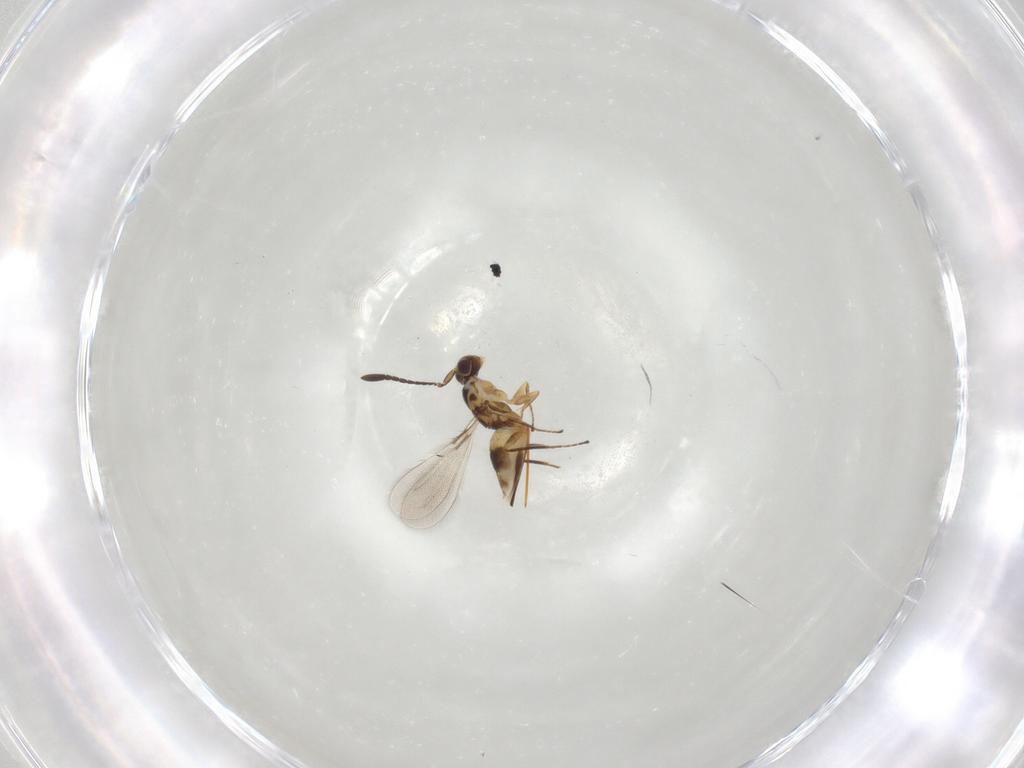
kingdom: Animalia
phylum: Arthropoda
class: Insecta
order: Hymenoptera
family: Mymaridae
